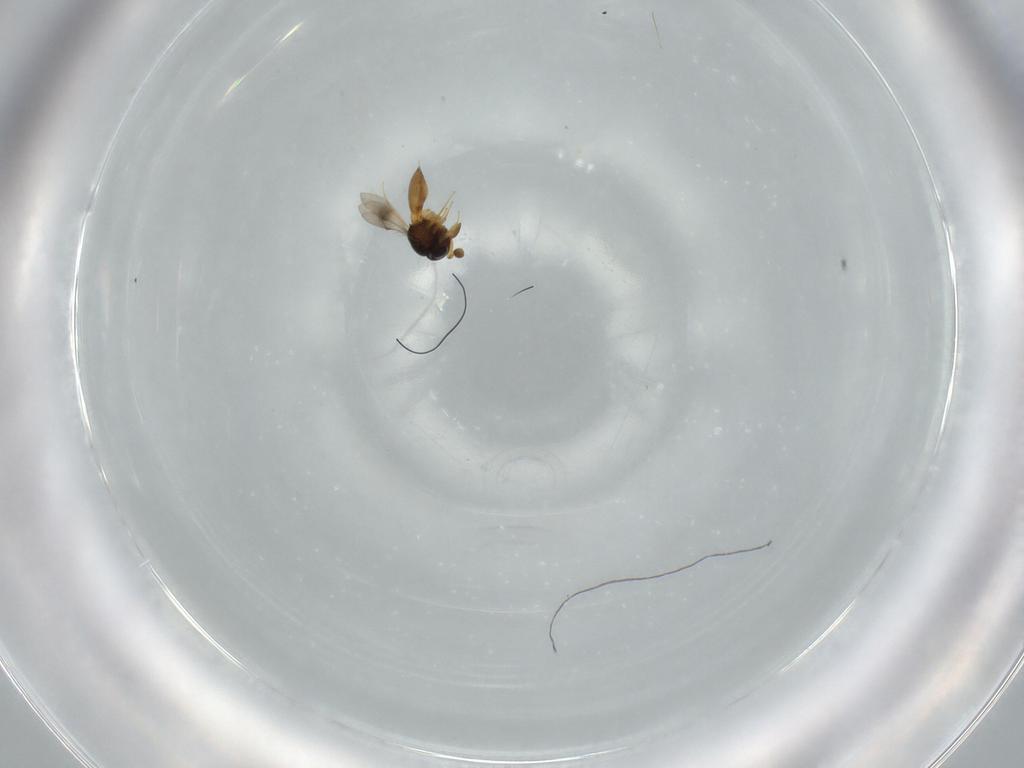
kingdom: Animalia
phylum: Arthropoda
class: Insecta
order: Hymenoptera
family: Scelionidae
